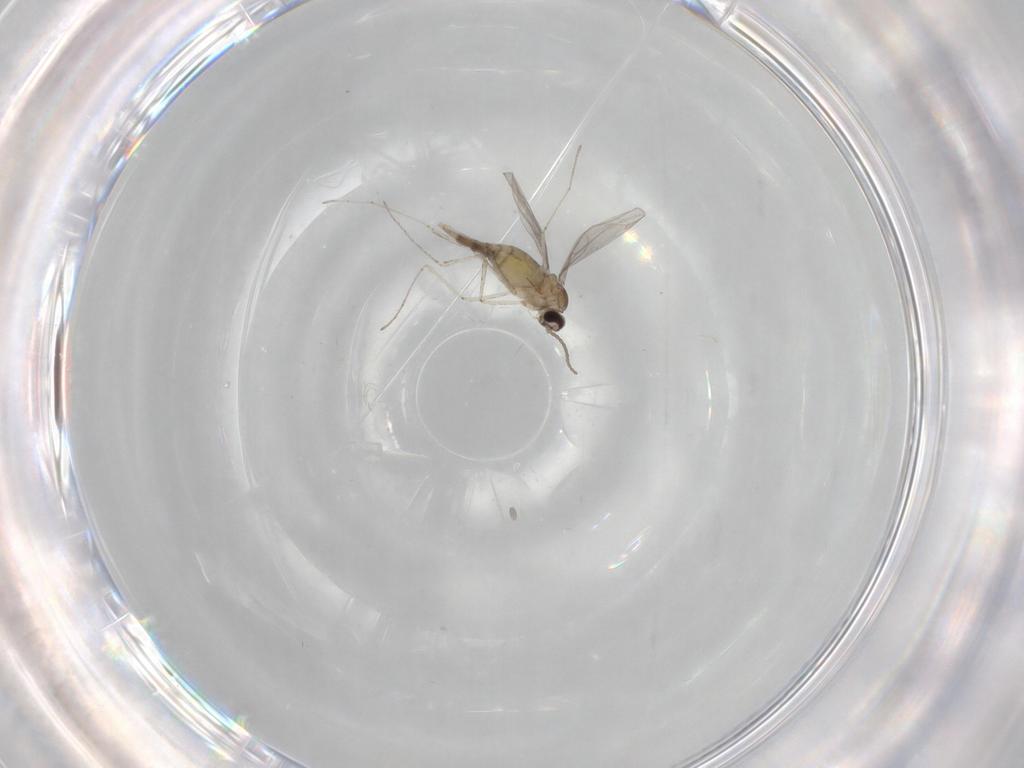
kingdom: Animalia
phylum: Arthropoda
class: Insecta
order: Diptera
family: Cecidomyiidae
